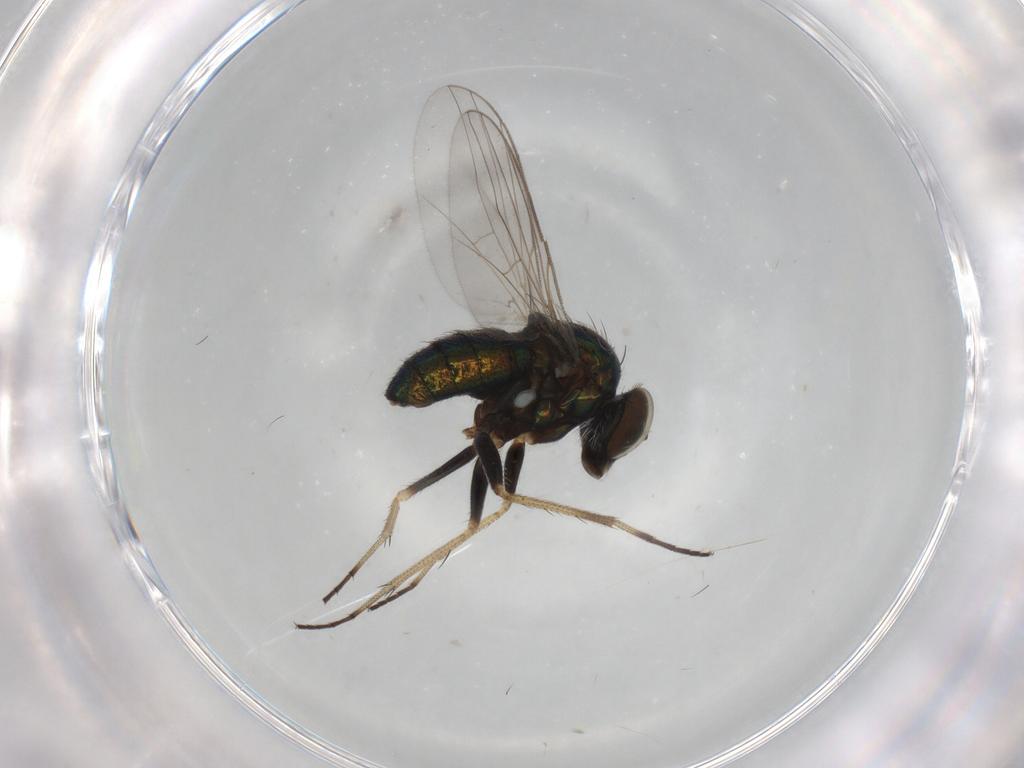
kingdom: Animalia
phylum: Arthropoda
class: Insecta
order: Diptera
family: Dolichopodidae
